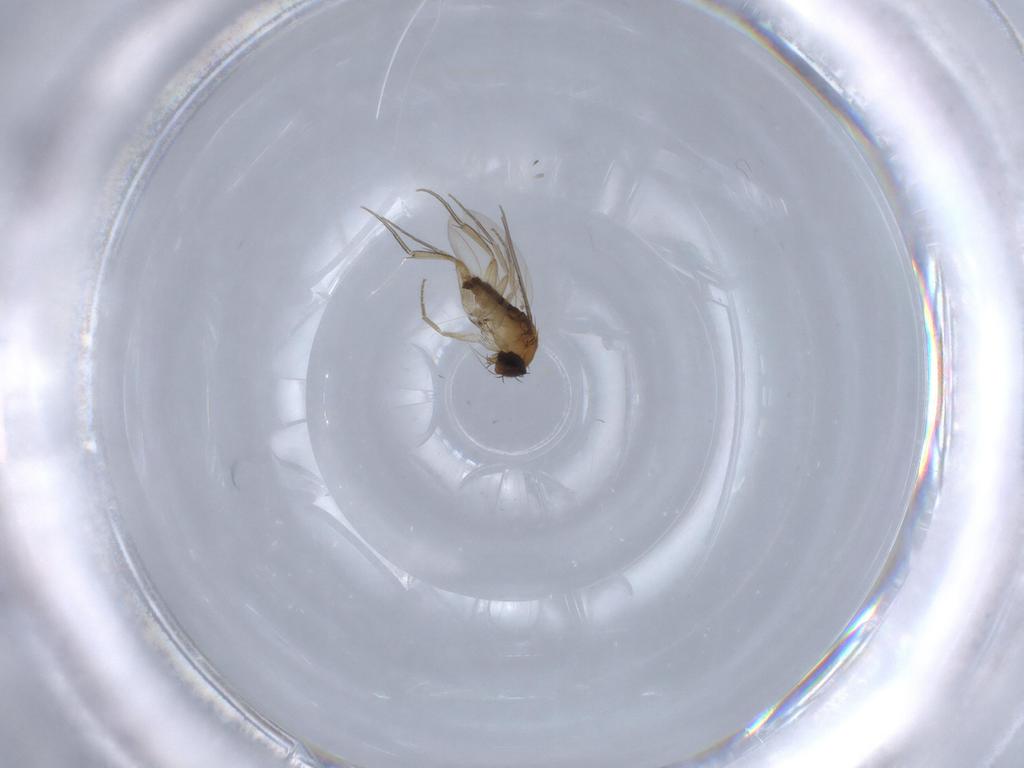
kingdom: Animalia
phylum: Arthropoda
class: Insecta
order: Diptera
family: Phoridae
